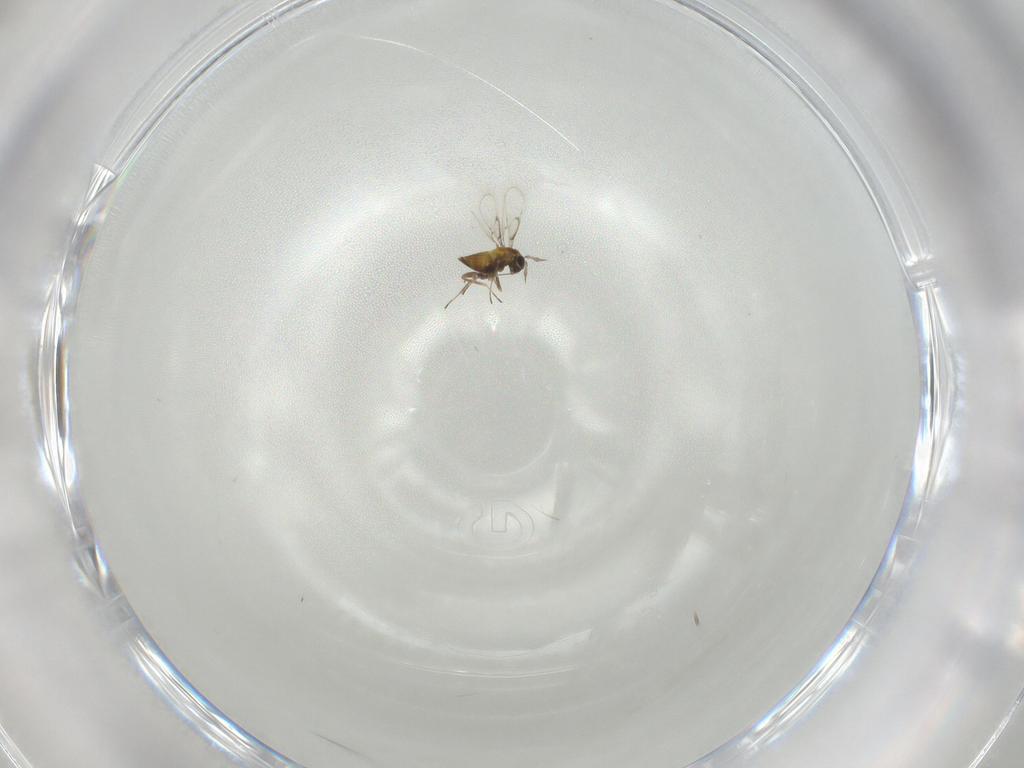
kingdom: Animalia
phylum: Arthropoda
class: Insecta
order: Hymenoptera
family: Trichogrammatidae
